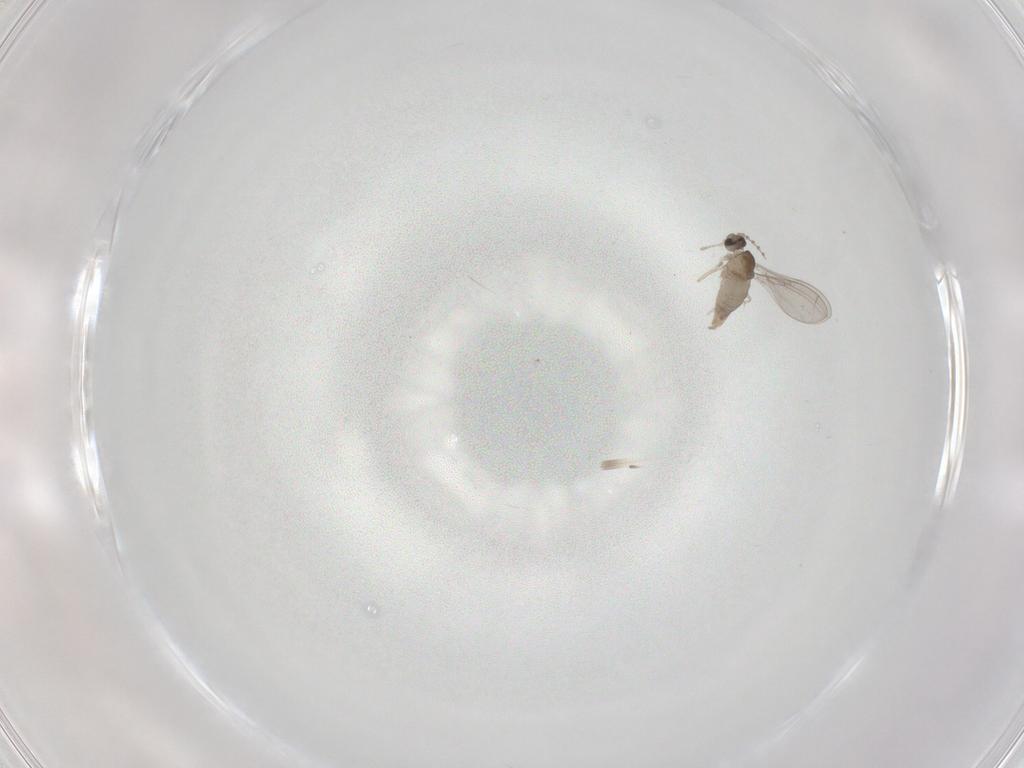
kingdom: Animalia
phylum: Arthropoda
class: Insecta
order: Diptera
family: Cecidomyiidae
